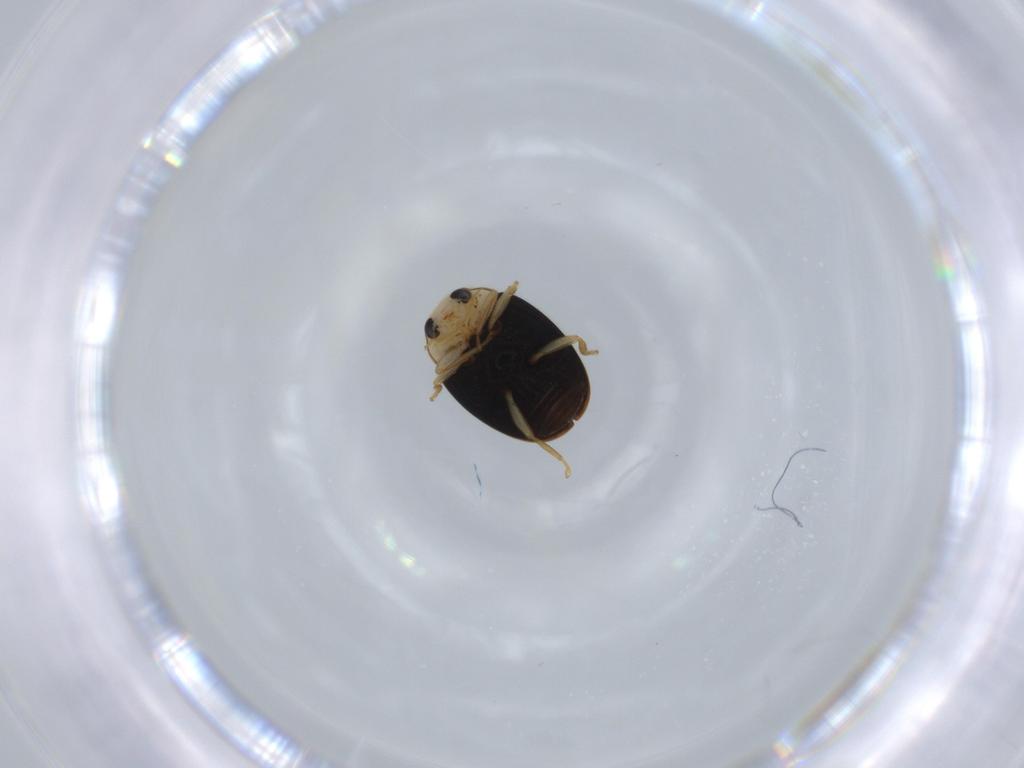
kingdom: Animalia
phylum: Arthropoda
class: Insecta
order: Coleoptera
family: Coccinellidae
